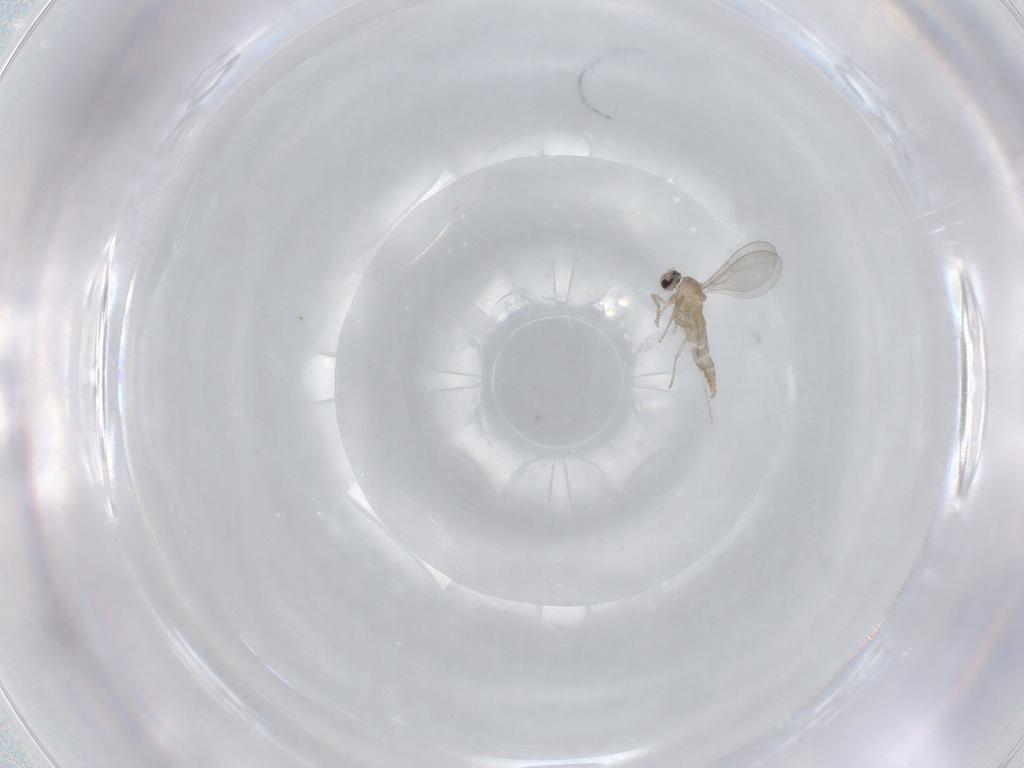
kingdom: Animalia
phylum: Arthropoda
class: Insecta
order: Diptera
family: Cecidomyiidae
